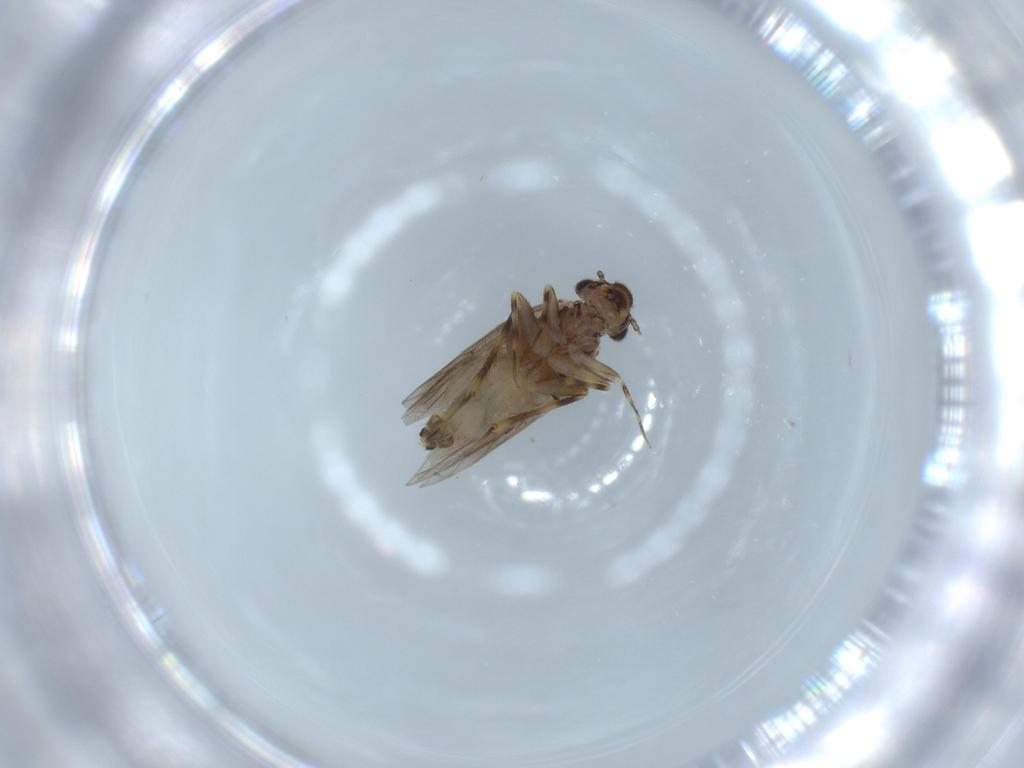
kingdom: Animalia
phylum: Arthropoda
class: Insecta
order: Psocodea
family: Lepidopsocidae
